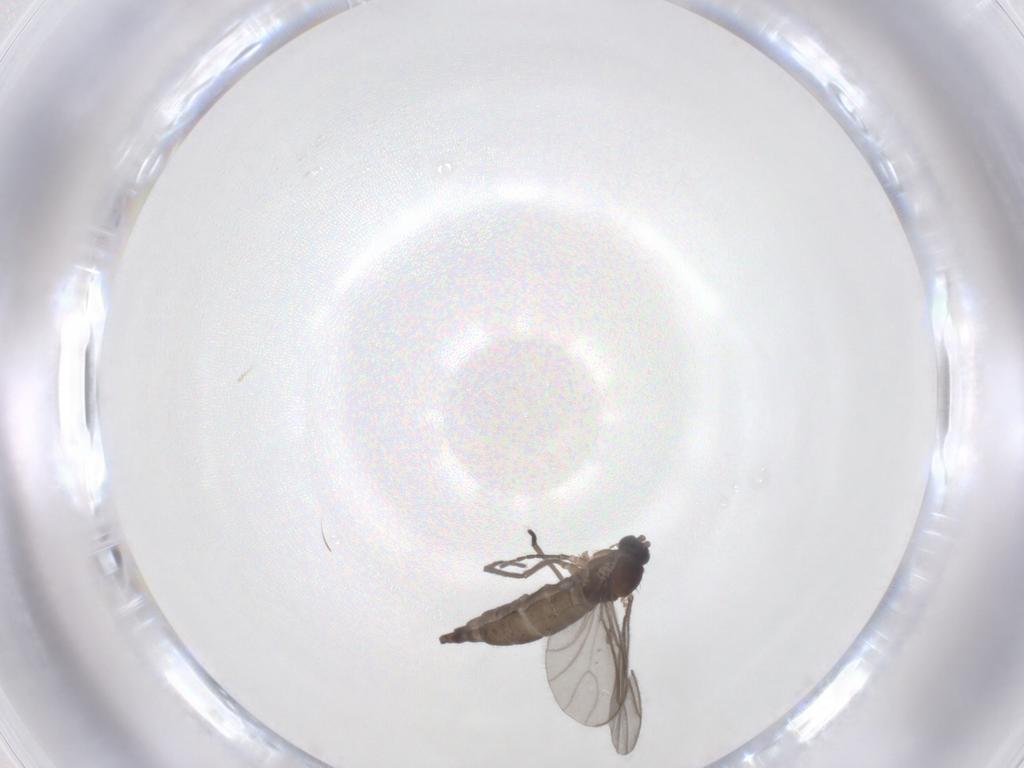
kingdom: Animalia
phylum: Arthropoda
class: Insecta
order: Diptera
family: Sciaridae
